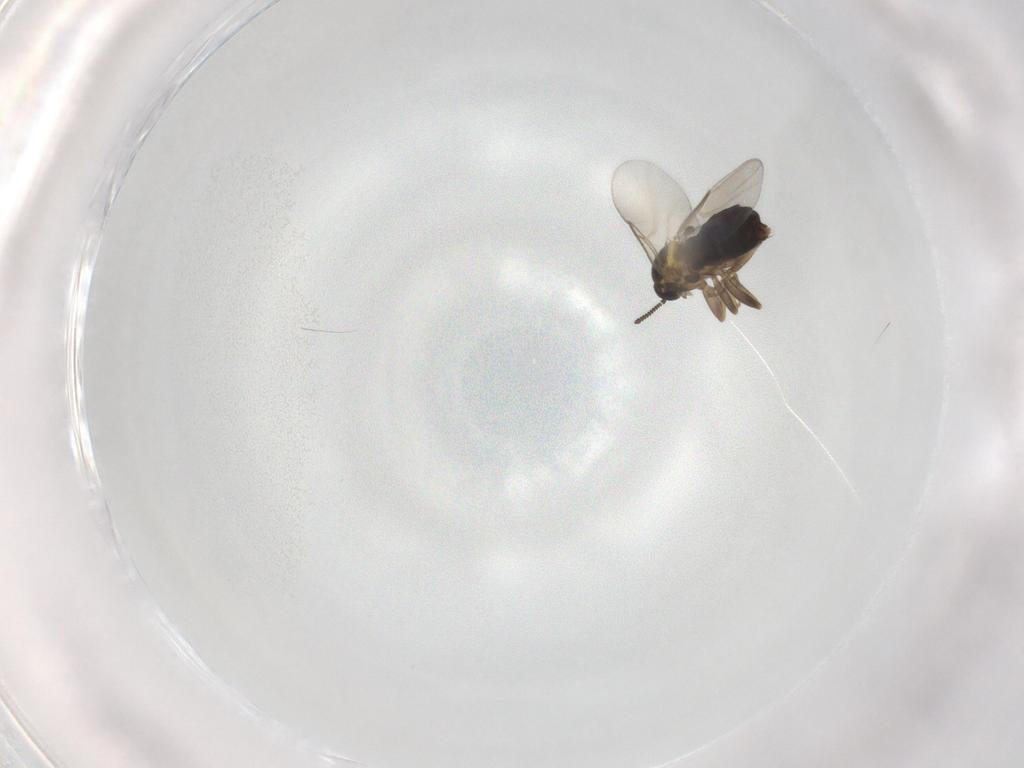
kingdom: Animalia
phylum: Arthropoda
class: Insecta
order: Diptera
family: Scatopsidae
